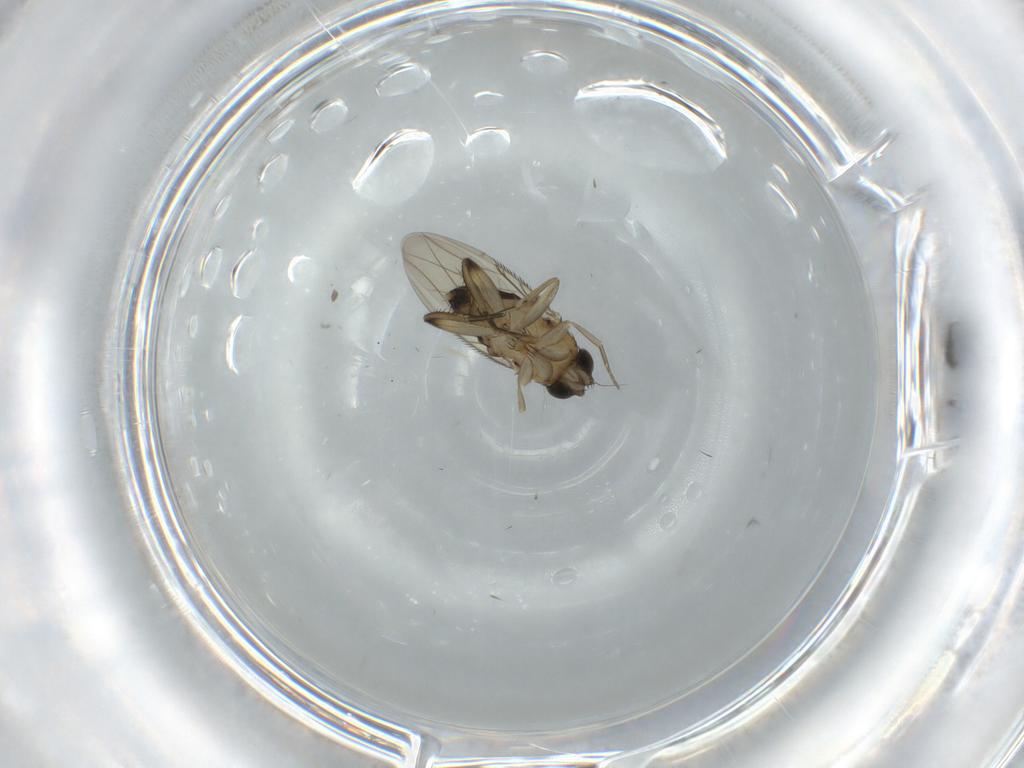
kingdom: Animalia
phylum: Arthropoda
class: Insecta
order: Diptera
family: Phoridae
